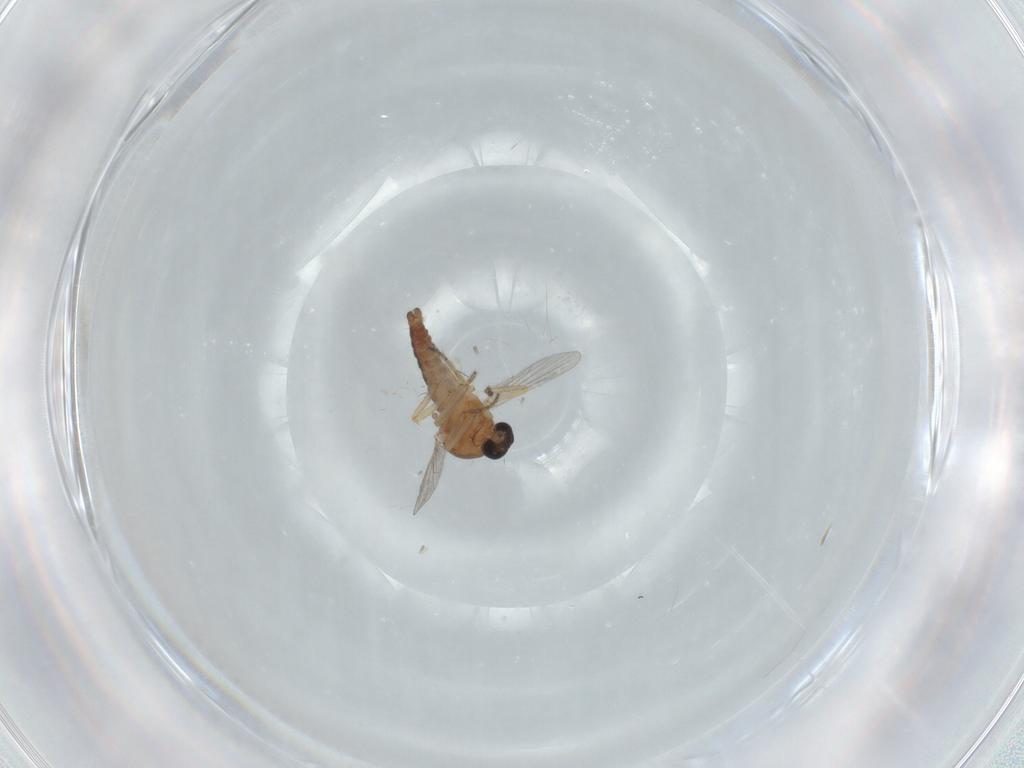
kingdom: Animalia
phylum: Arthropoda
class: Insecta
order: Diptera
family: Ceratopogonidae
